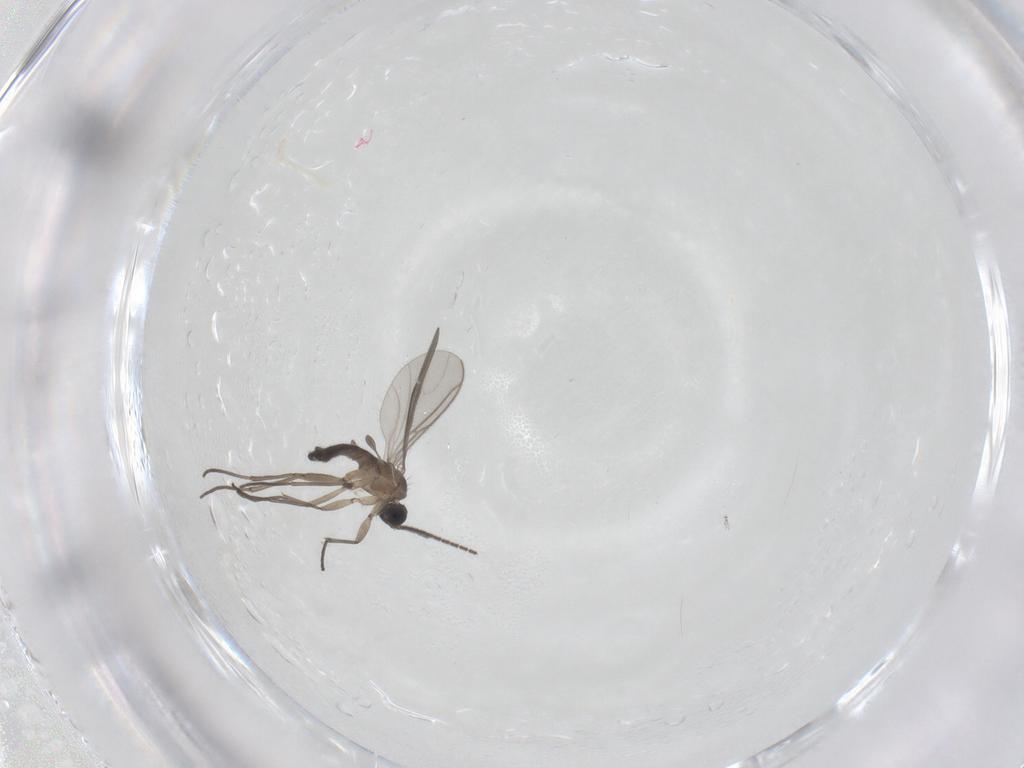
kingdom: Animalia
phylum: Arthropoda
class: Insecta
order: Diptera
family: Sciaridae
